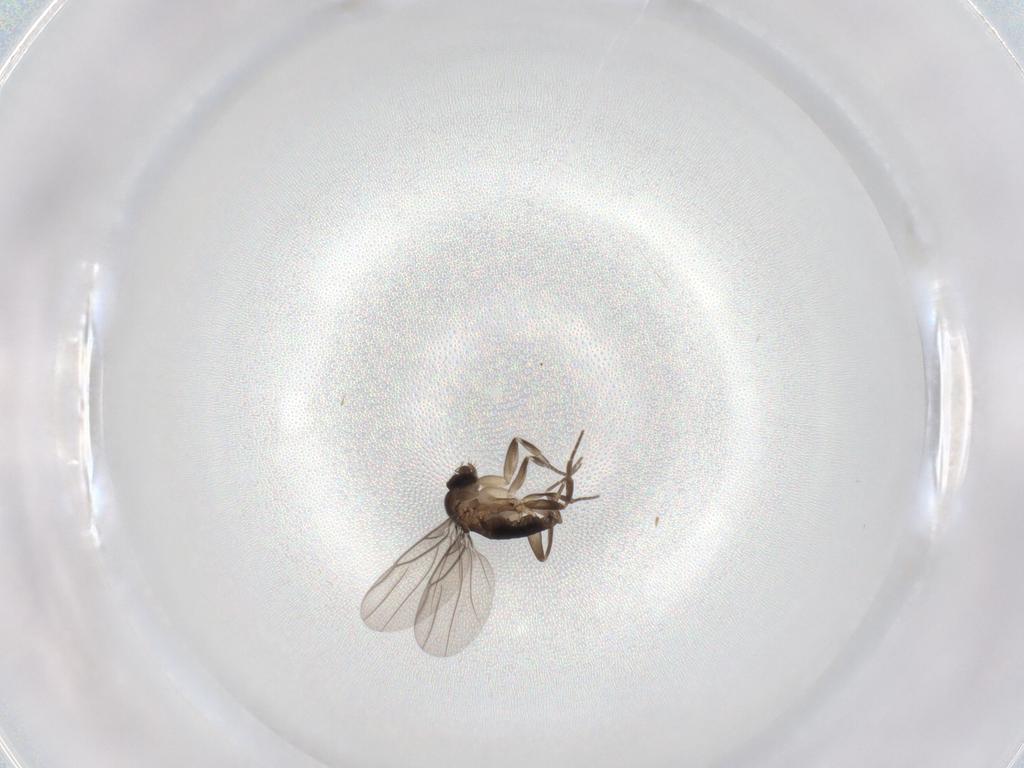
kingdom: Animalia
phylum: Arthropoda
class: Insecta
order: Diptera
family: Phoridae
